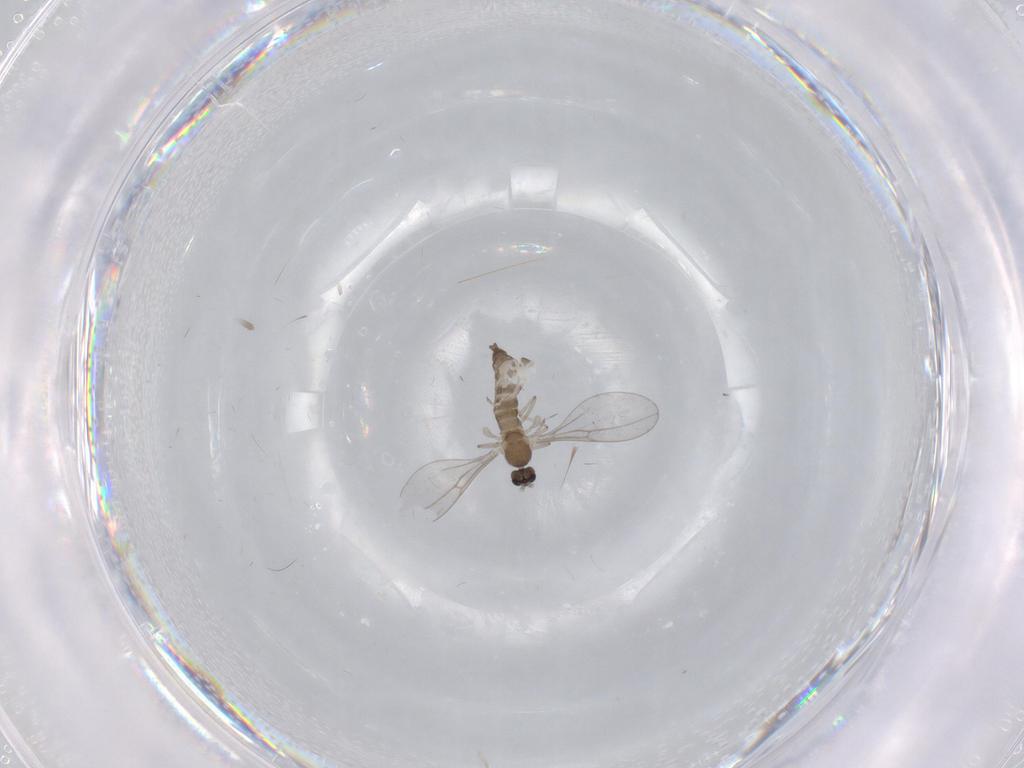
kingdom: Animalia
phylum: Arthropoda
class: Insecta
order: Diptera
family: Cecidomyiidae
